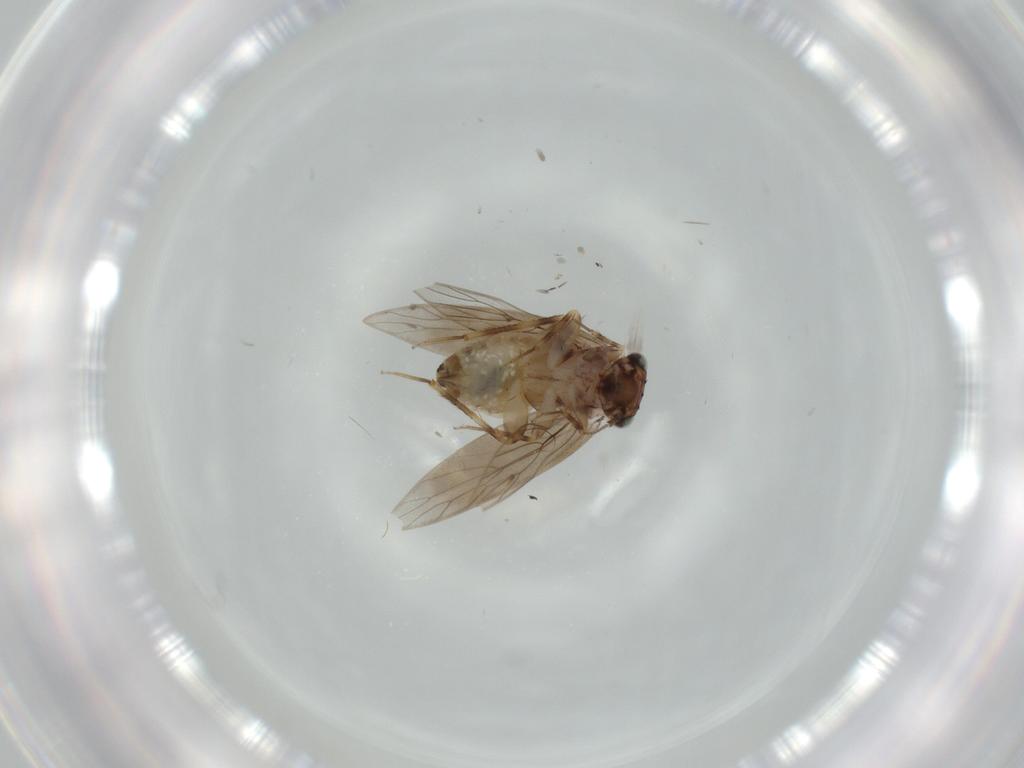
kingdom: Animalia
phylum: Arthropoda
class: Insecta
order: Psocodea
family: Lepidopsocidae
